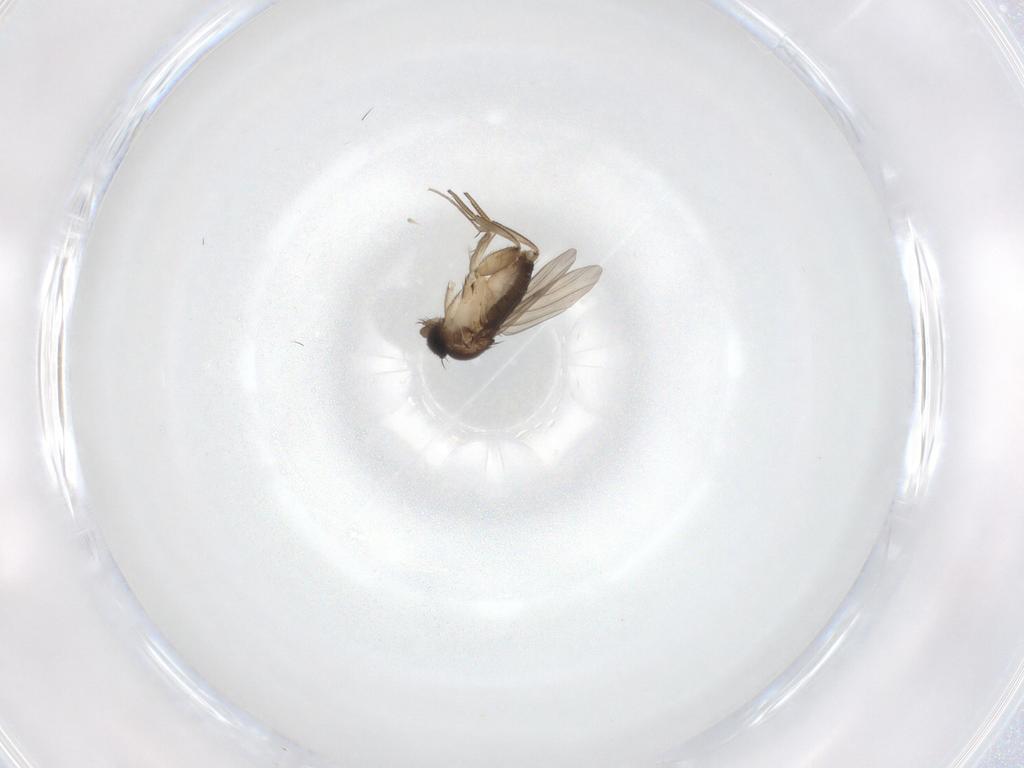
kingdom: Animalia
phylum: Arthropoda
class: Insecta
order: Diptera
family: Phoridae
